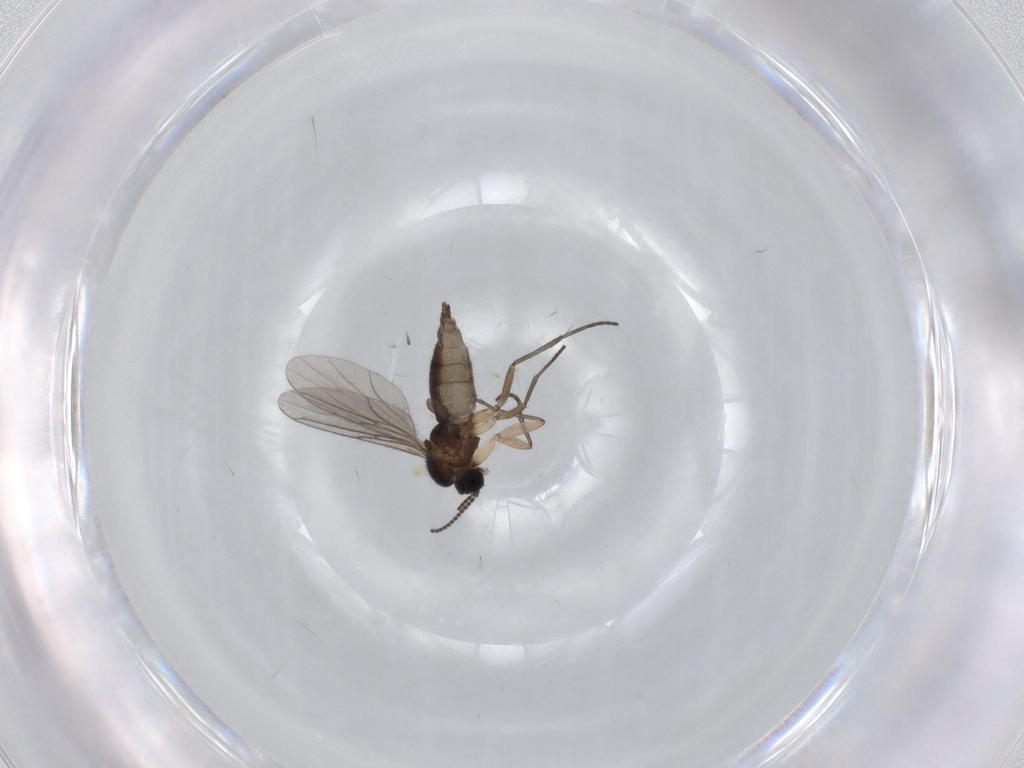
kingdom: Animalia
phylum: Arthropoda
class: Insecta
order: Diptera
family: Sciaridae
